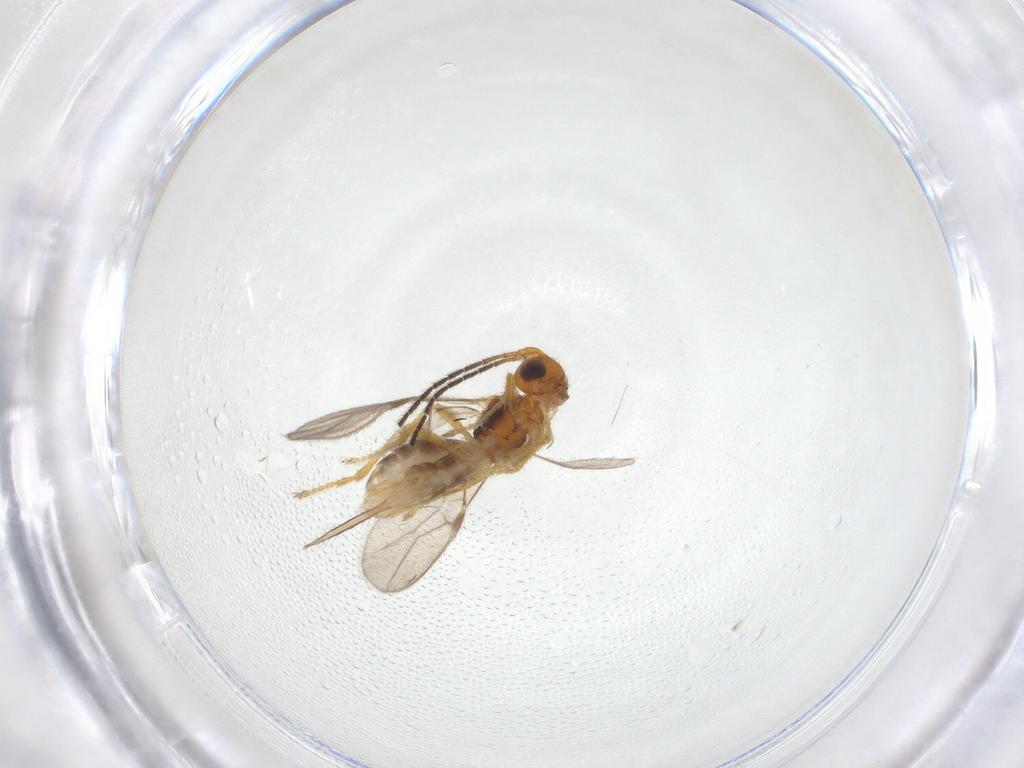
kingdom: Animalia
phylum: Arthropoda
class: Insecta
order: Hymenoptera
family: Braconidae
